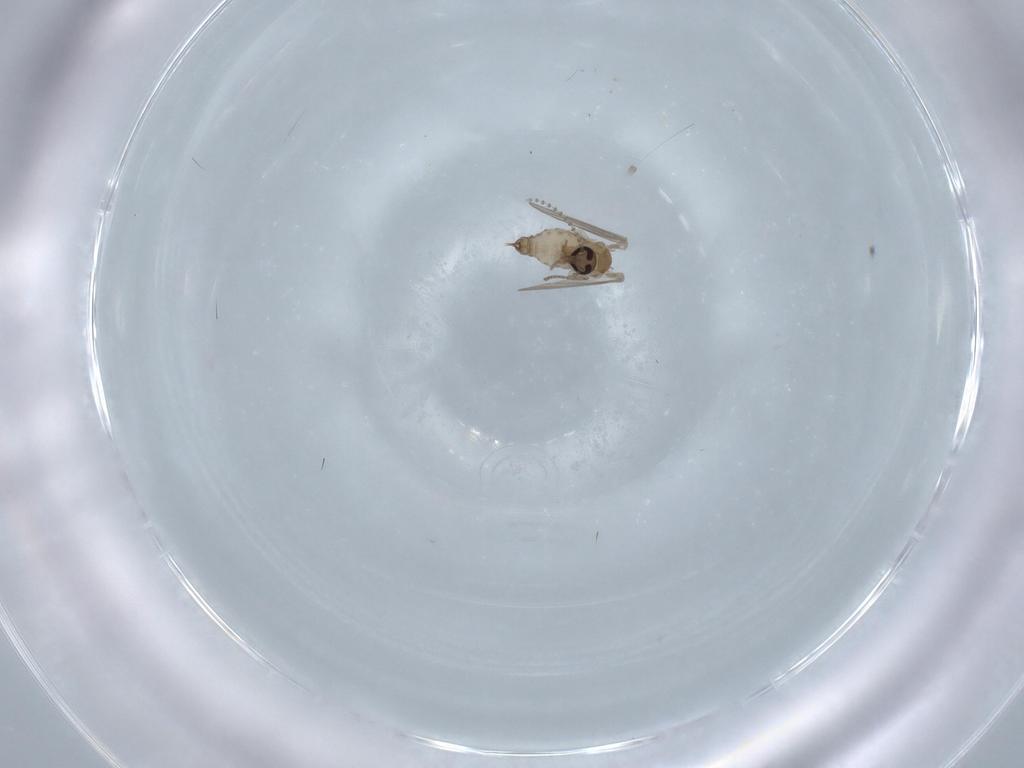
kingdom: Animalia
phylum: Arthropoda
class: Insecta
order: Diptera
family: Psychodidae
